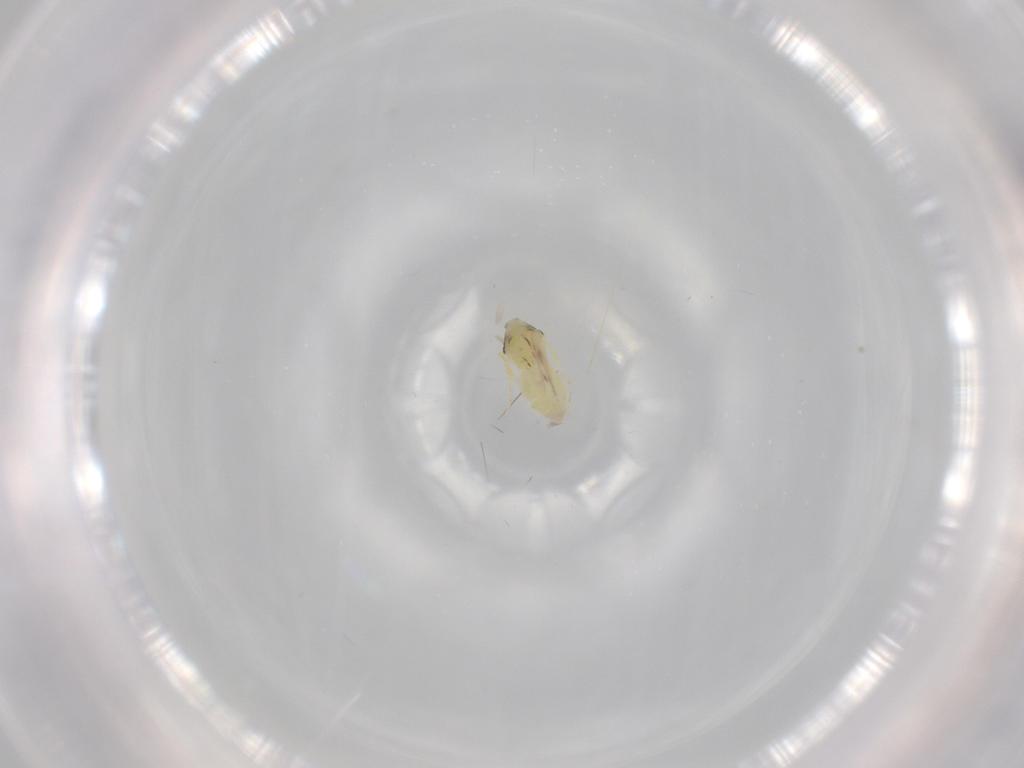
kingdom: Animalia
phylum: Arthropoda
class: Insecta
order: Hemiptera
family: Aleyrodidae
